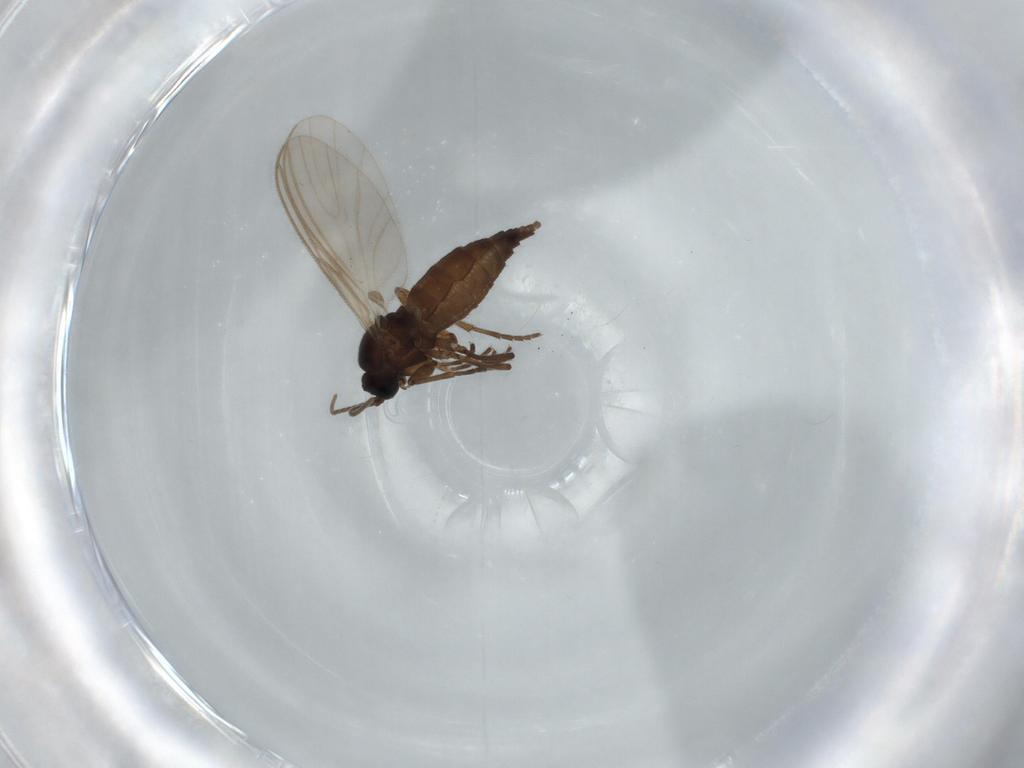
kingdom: Animalia
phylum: Arthropoda
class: Insecta
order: Diptera
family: Sciaridae
